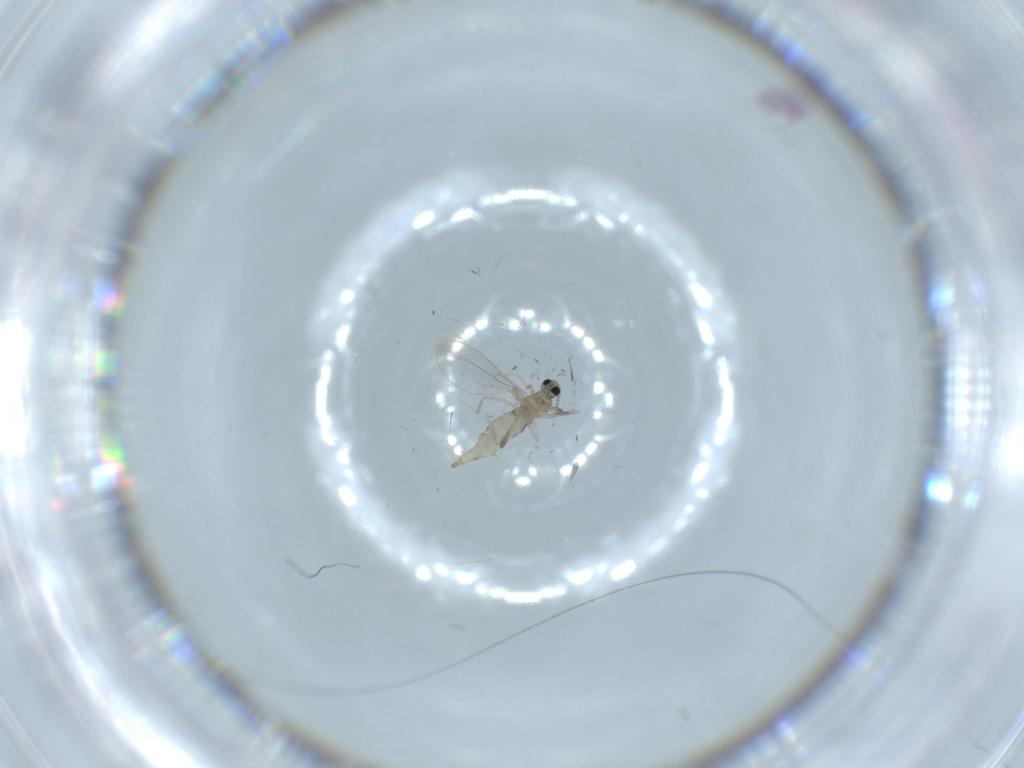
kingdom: Animalia
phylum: Arthropoda
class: Insecta
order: Diptera
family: Cecidomyiidae
